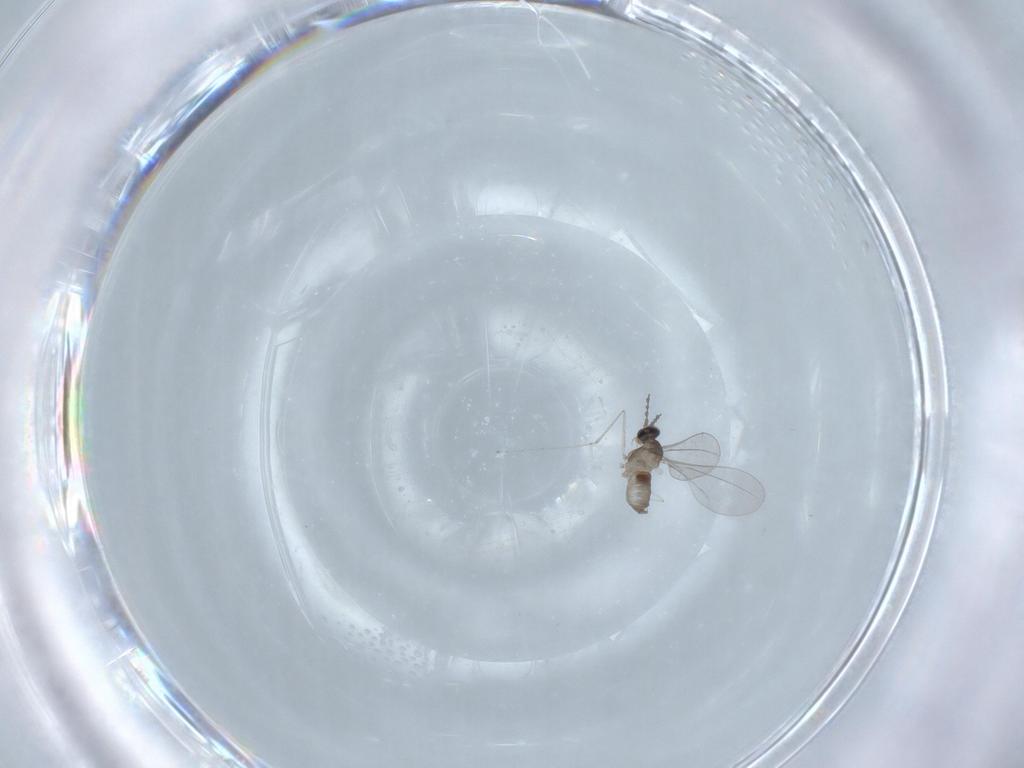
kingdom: Animalia
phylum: Arthropoda
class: Insecta
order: Diptera
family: Cecidomyiidae
